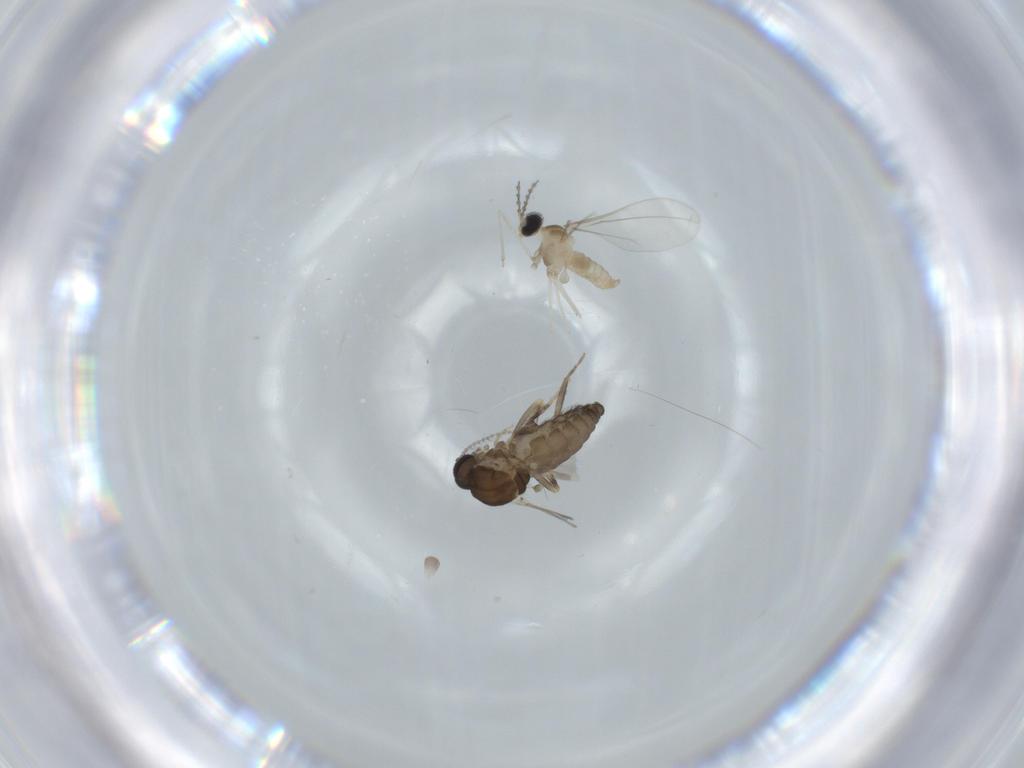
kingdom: Animalia
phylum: Arthropoda
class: Insecta
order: Diptera
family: Ceratopogonidae
